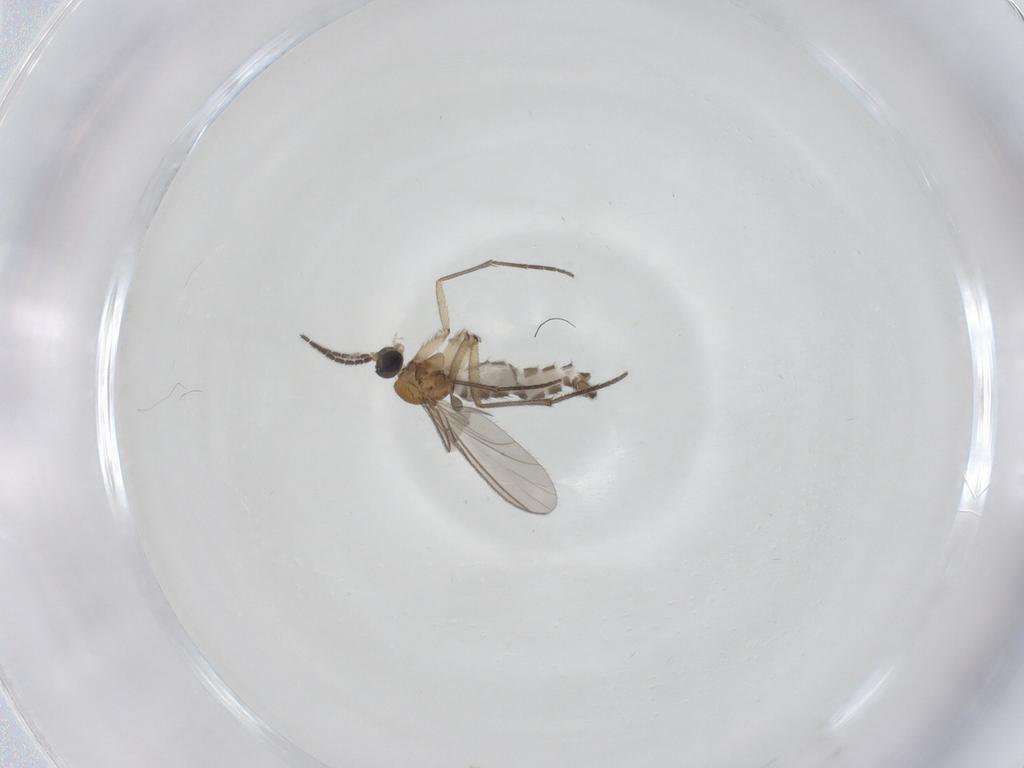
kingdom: Animalia
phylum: Arthropoda
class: Insecta
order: Diptera
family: Sciaridae
